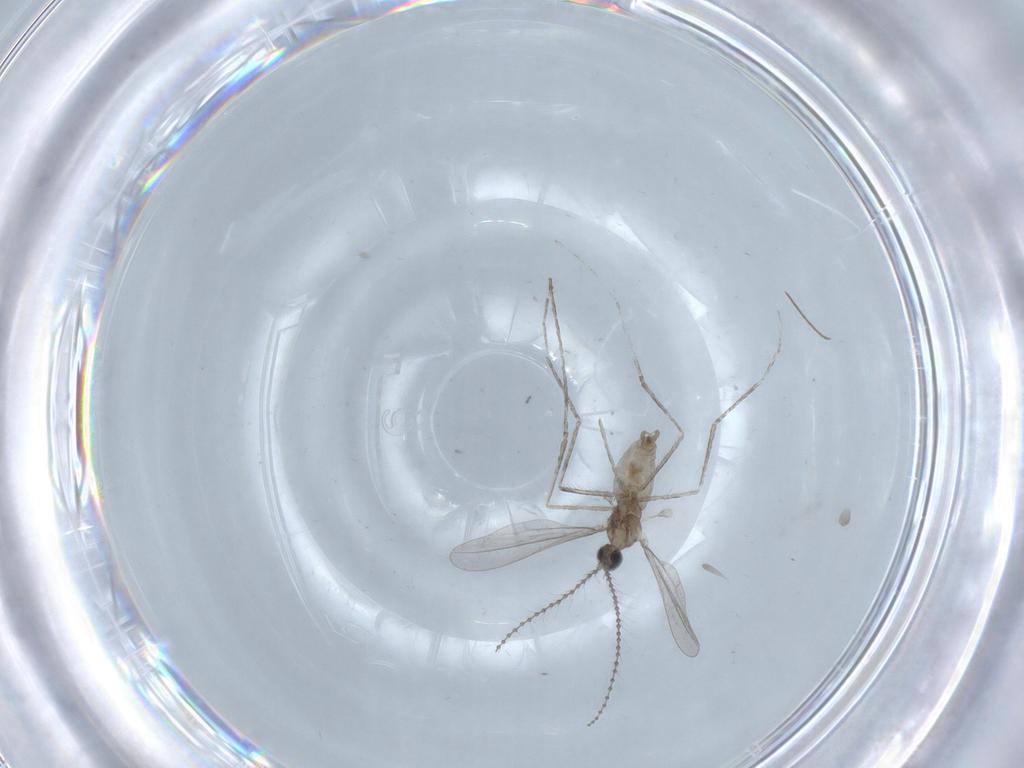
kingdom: Animalia
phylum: Arthropoda
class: Insecta
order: Diptera
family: Cecidomyiidae
